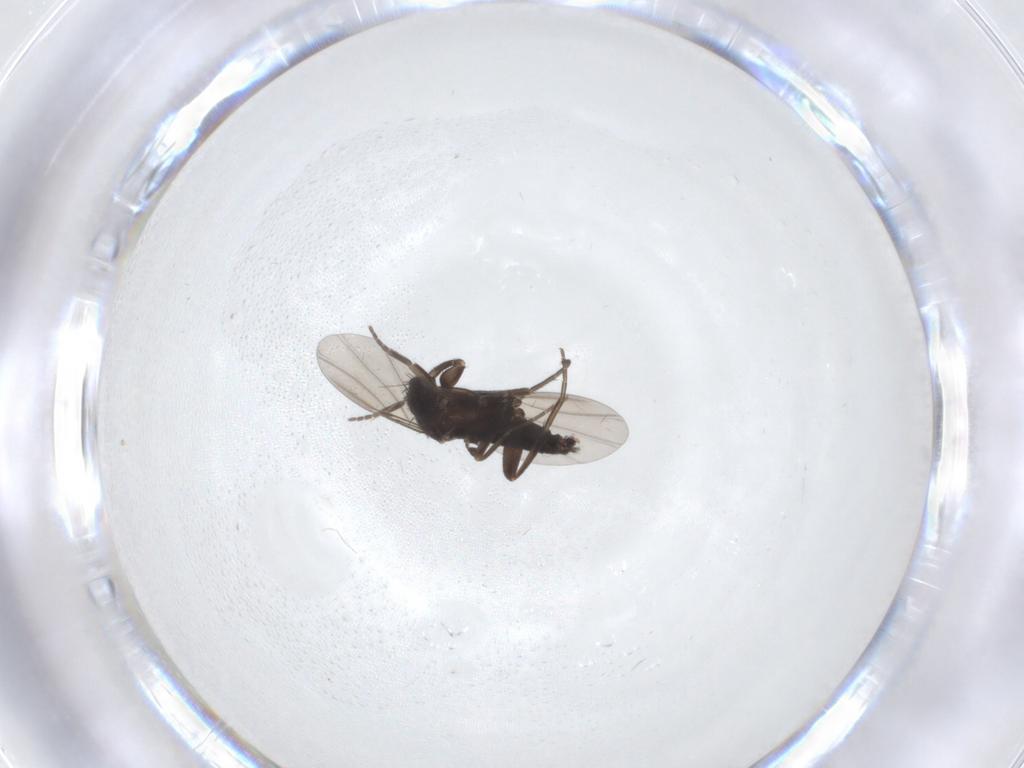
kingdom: Animalia
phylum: Arthropoda
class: Insecta
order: Diptera
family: Phoridae
